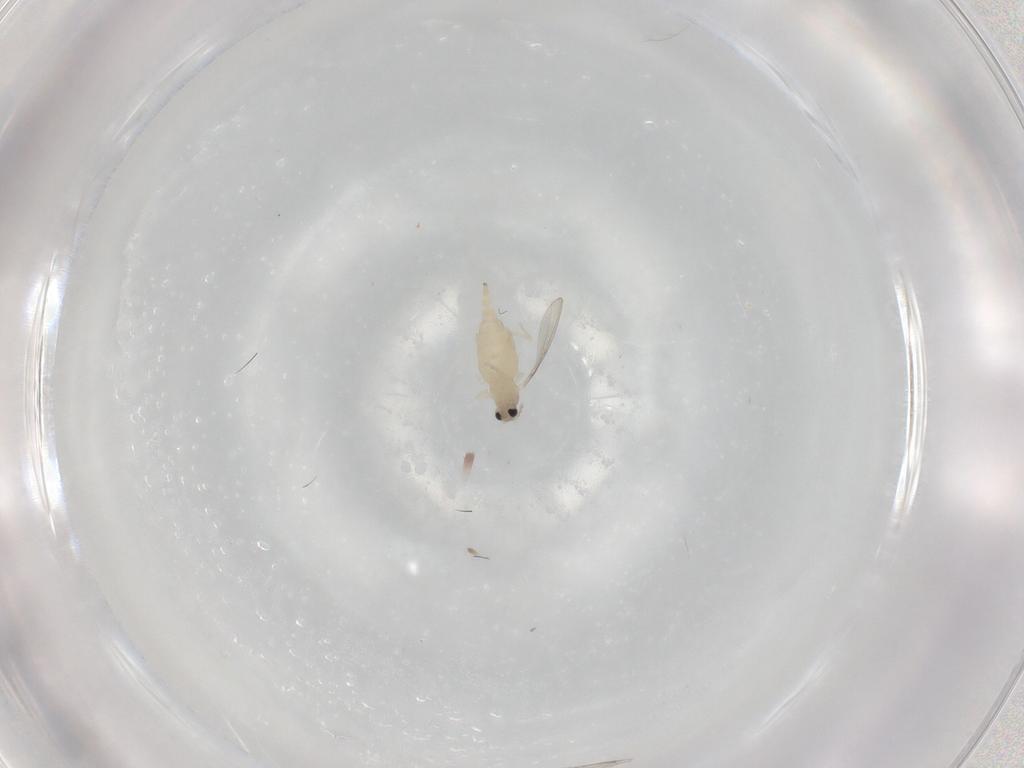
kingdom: Animalia
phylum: Arthropoda
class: Insecta
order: Diptera
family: Cecidomyiidae
